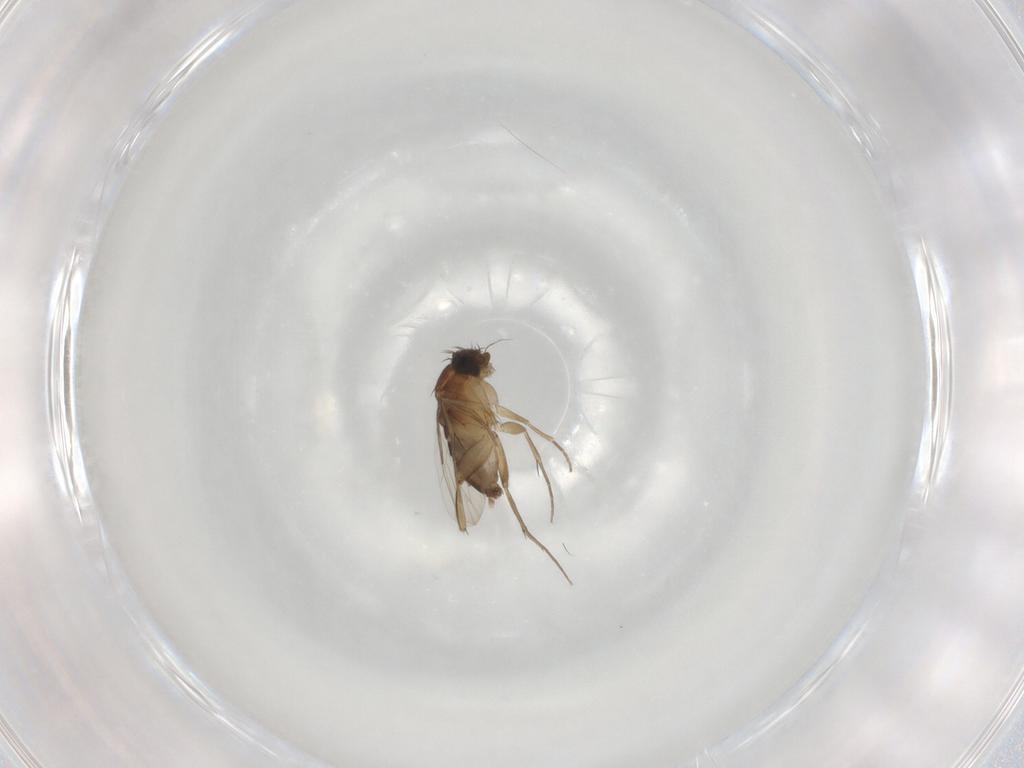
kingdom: Animalia
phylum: Arthropoda
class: Insecta
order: Diptera
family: Phoridae
